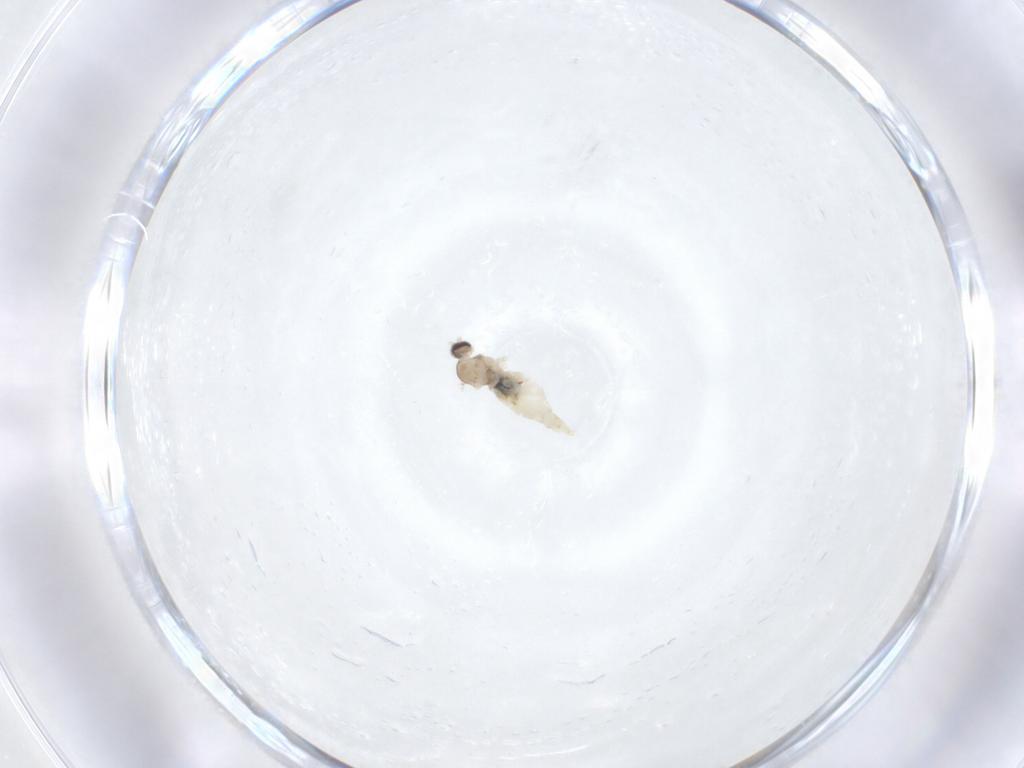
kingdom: Animalia
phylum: Arthropoda
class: Insecta
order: Diptera
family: Cecidomyiidae
